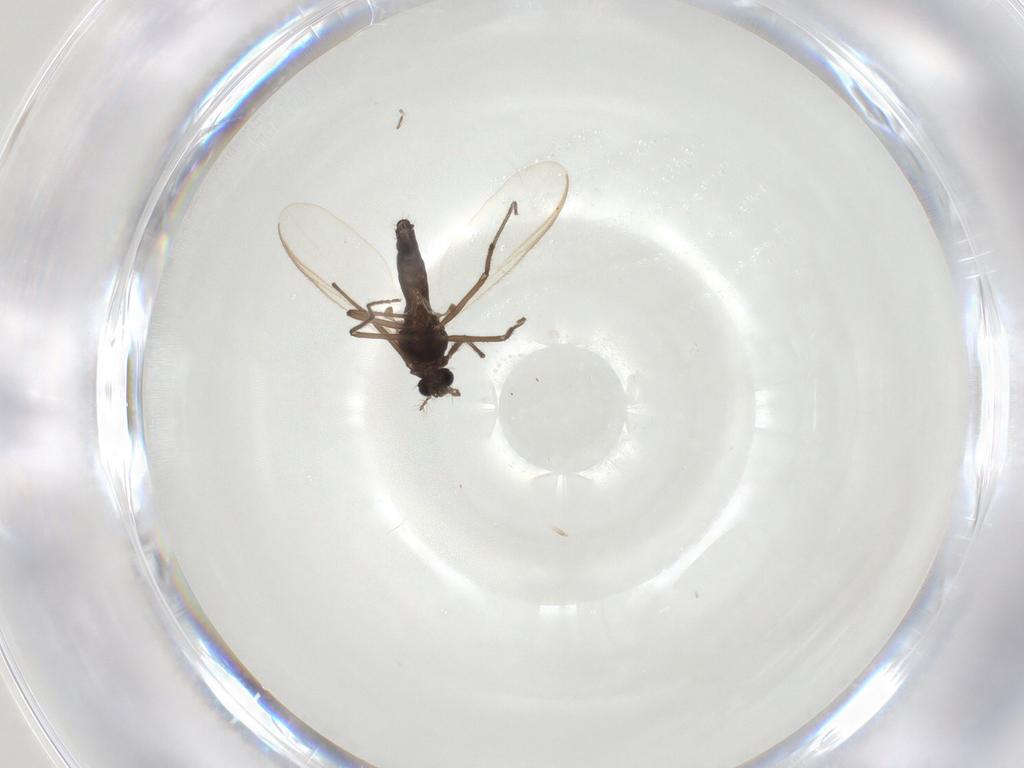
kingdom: Animalia
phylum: Arthropoda
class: Insecta
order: Diptera
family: Chironomidae
